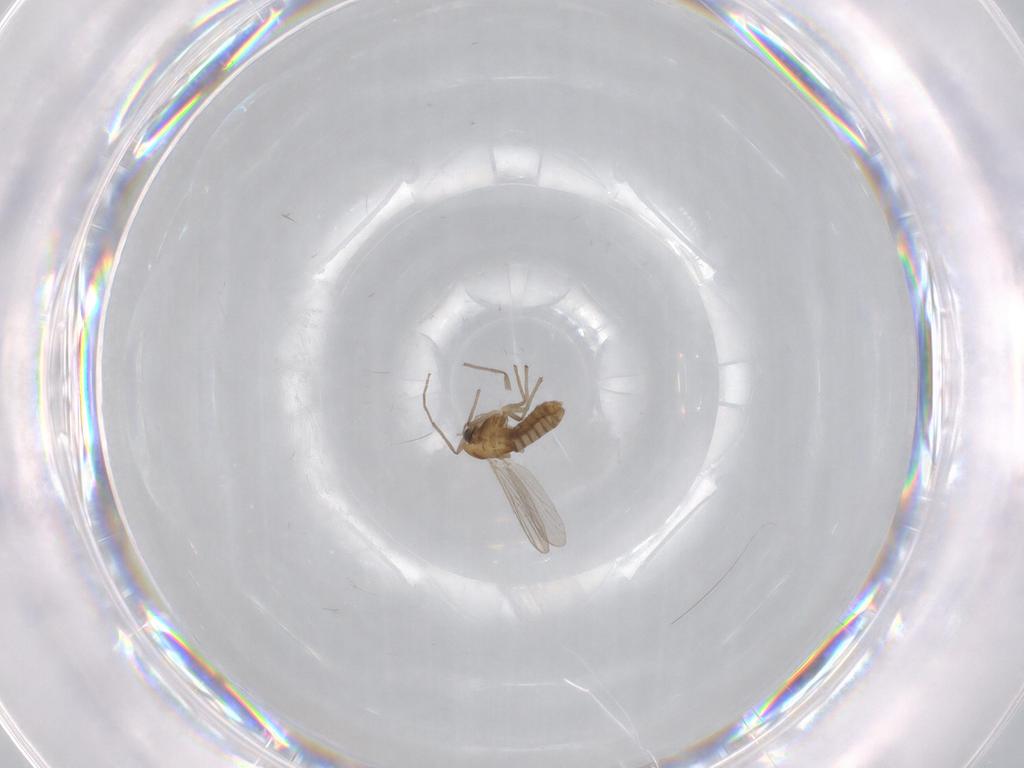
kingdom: Animalia
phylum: Arthropoda
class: Insecta
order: Diptera
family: Chironomidae
